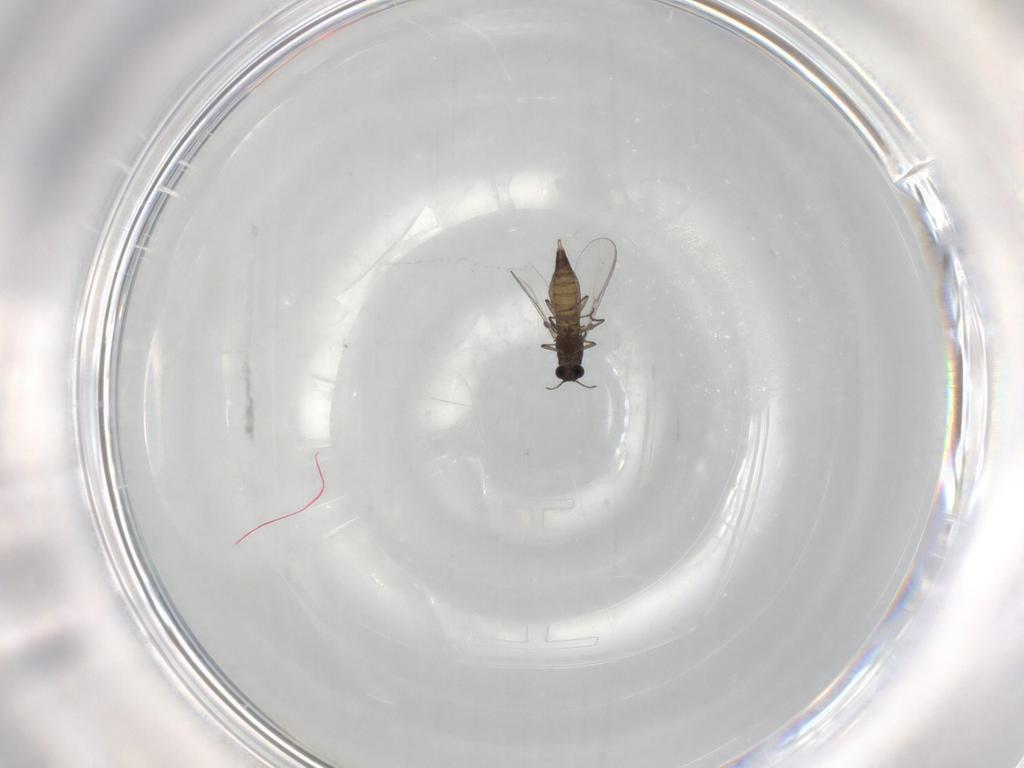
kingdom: Animalia
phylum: Arthropoda
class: Insecta
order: Diptera
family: Chironomidae
